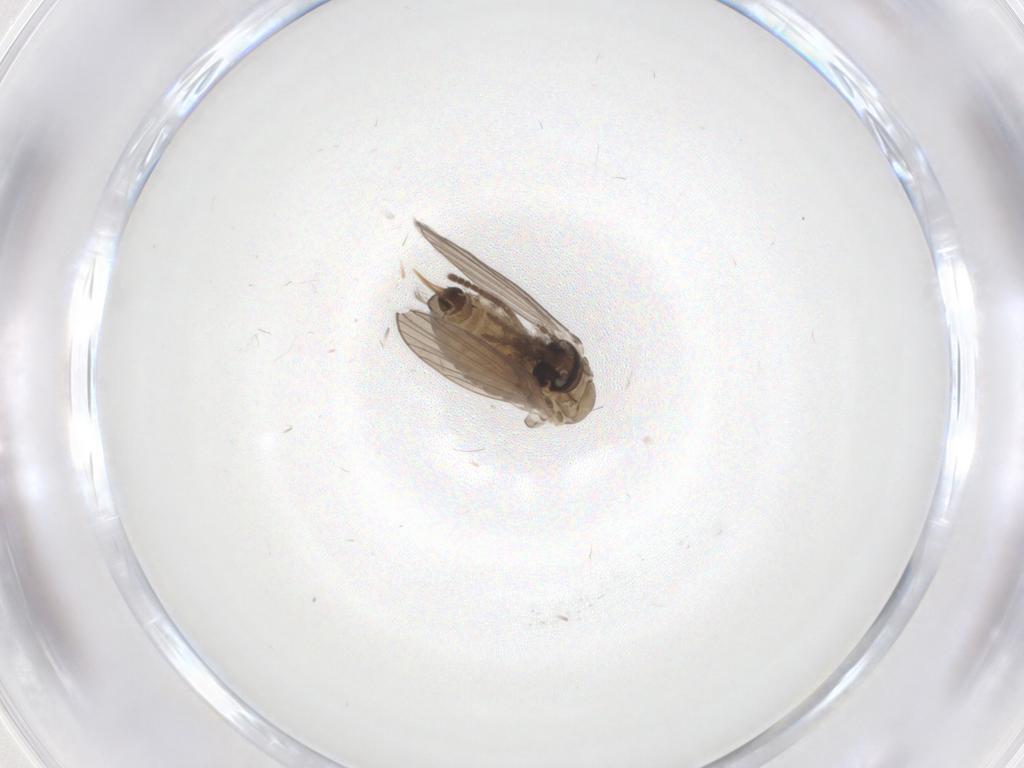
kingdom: Animalia
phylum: Arthropoda
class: Insecta
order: Diptera
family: Psychodidae
